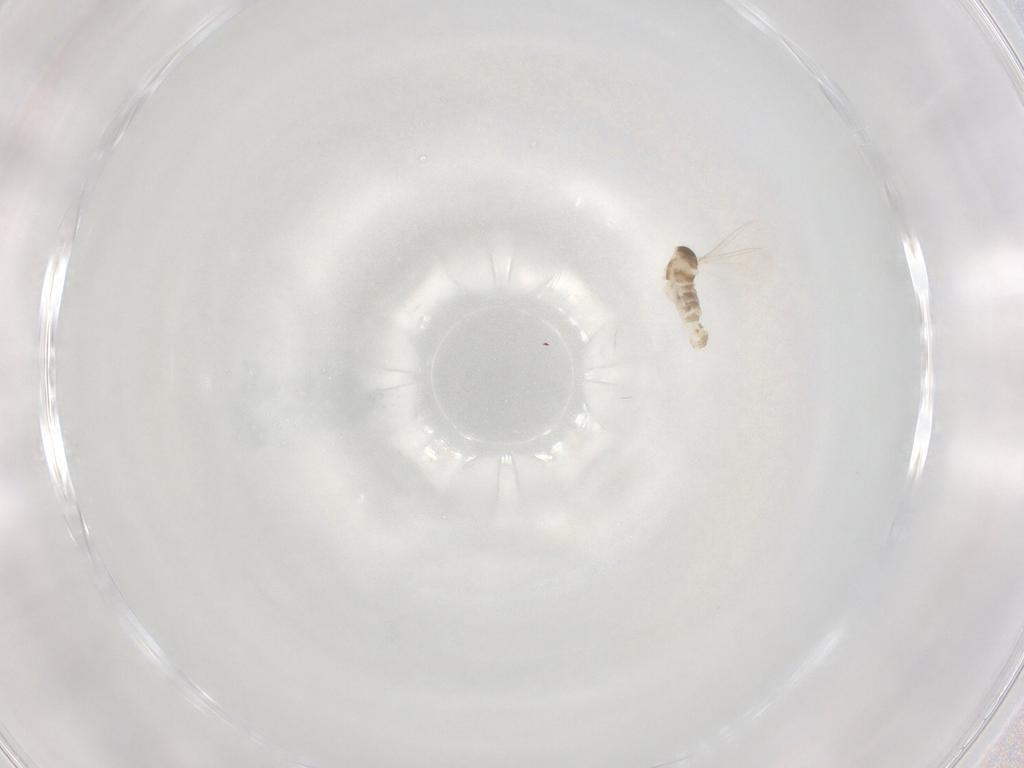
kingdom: Animalia
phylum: Arthropoda
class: Insecta
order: Diptera
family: Cecidomyiidae
